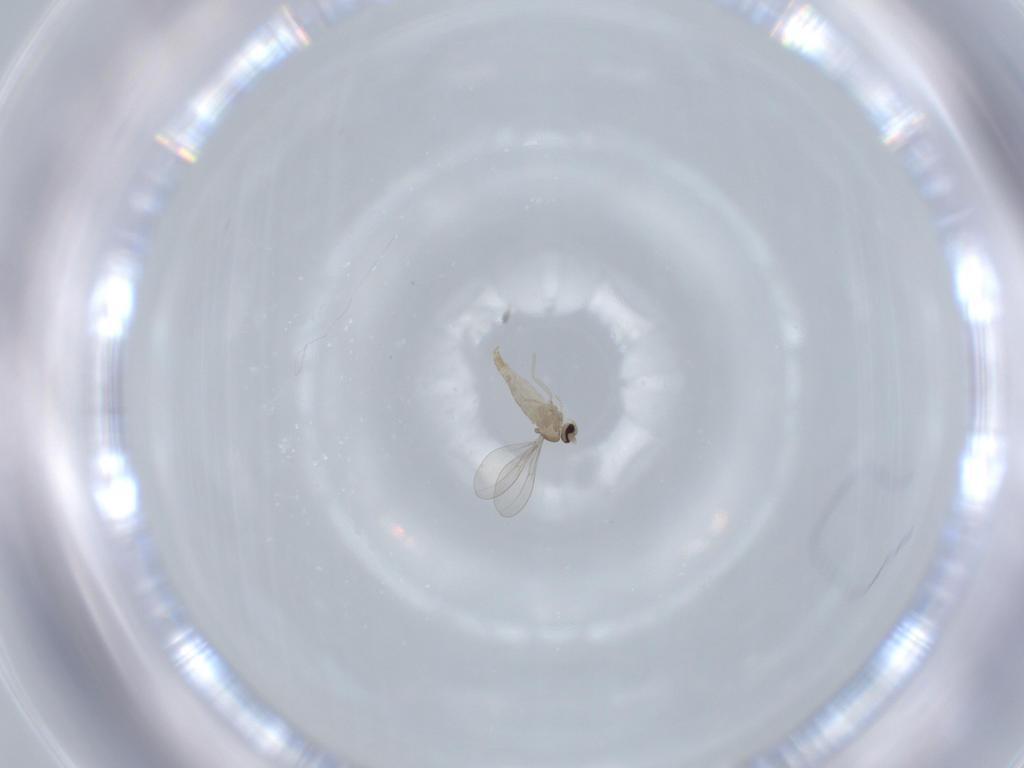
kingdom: Animalia
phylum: Arthropoda
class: Insecta
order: Diptera
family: Cecidomyiidae
